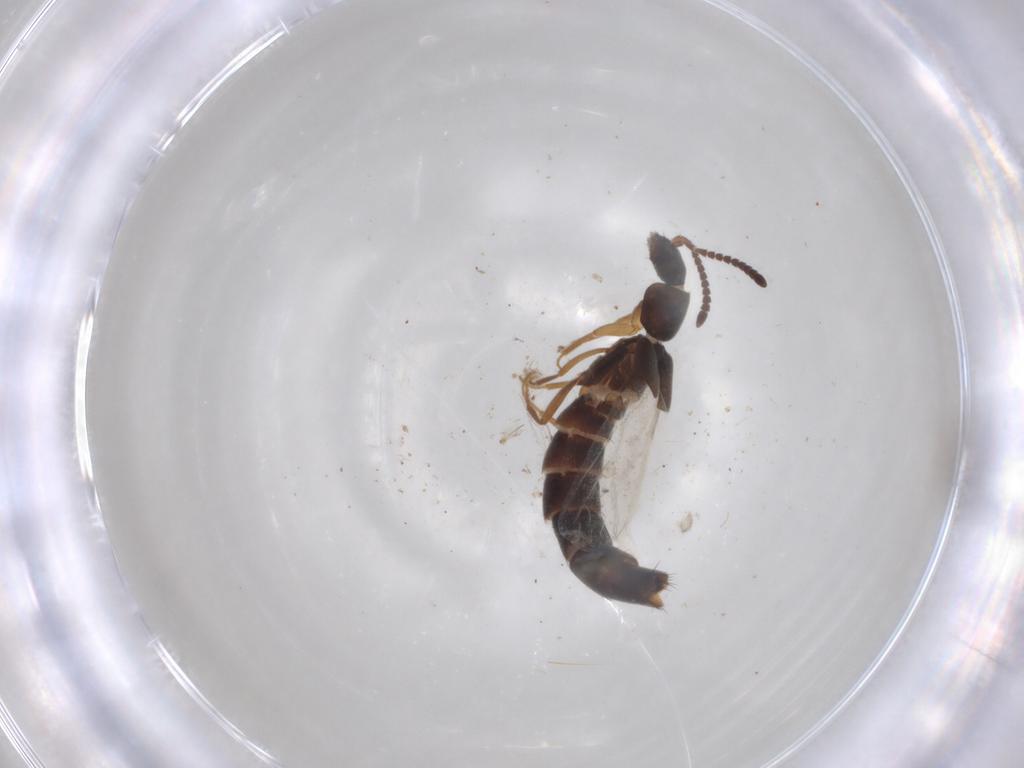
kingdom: Animalia
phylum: Arthropoda
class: Insecta
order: Coleoptera
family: Staphylinidae
